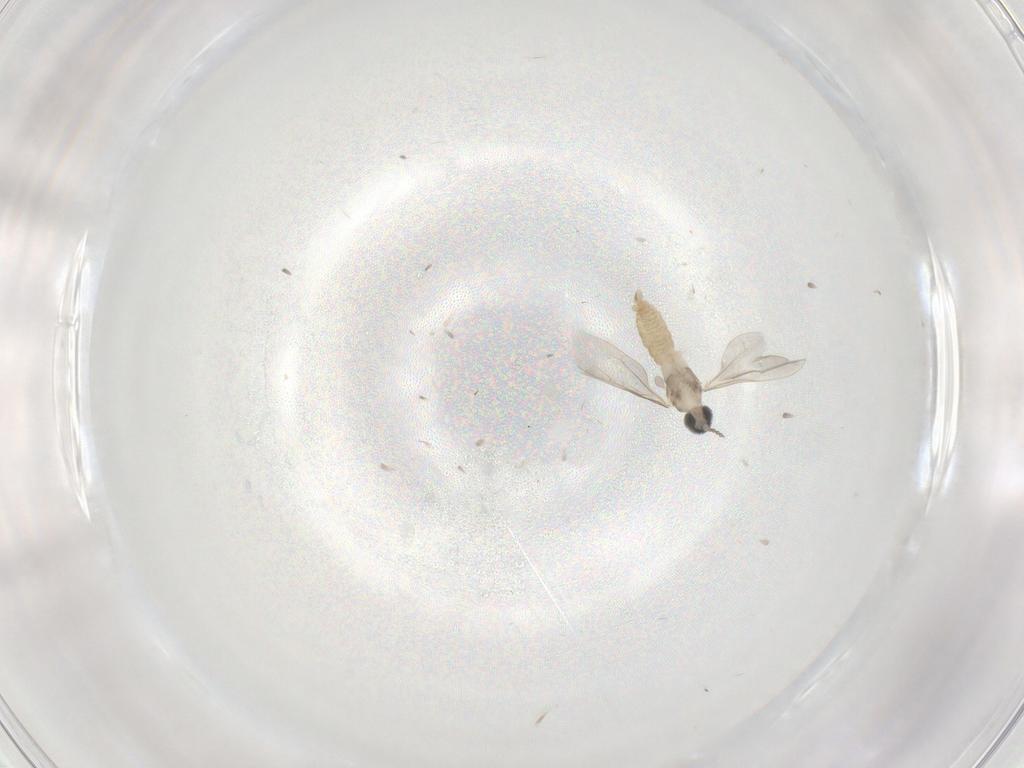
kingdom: Animalia
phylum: Arthropoda
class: Insecta
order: Diptera
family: Cecidomyiidae
